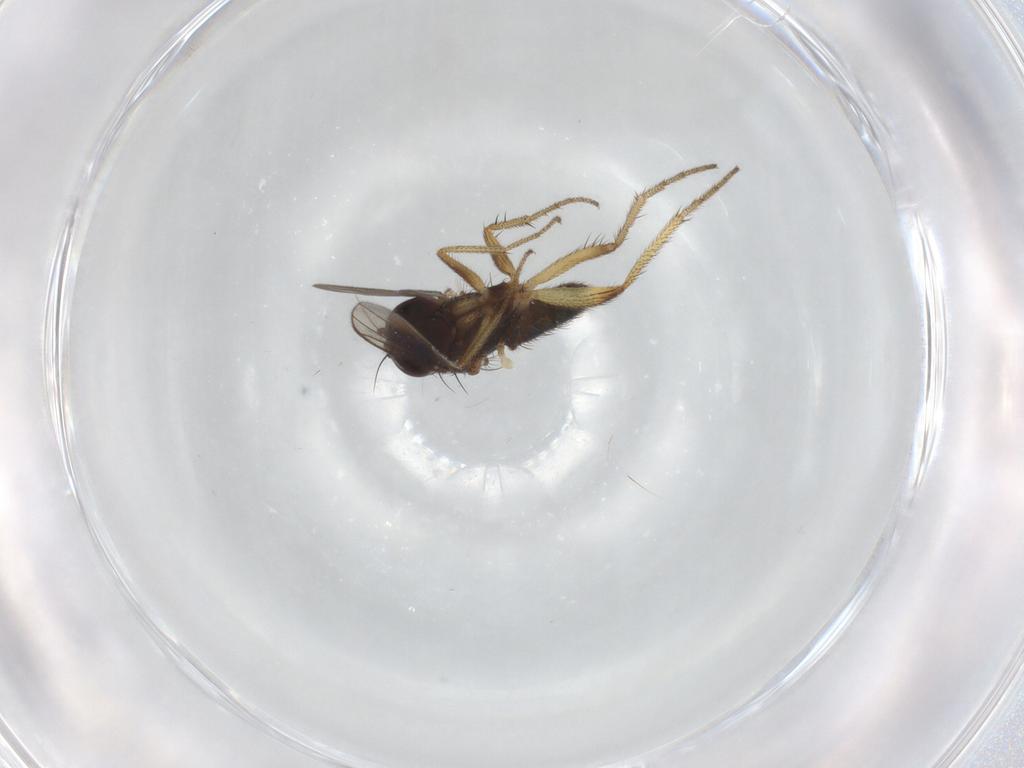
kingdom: Animalia
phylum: Arthropoda
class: Insecta
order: Diptera
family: Dolichopodidae
